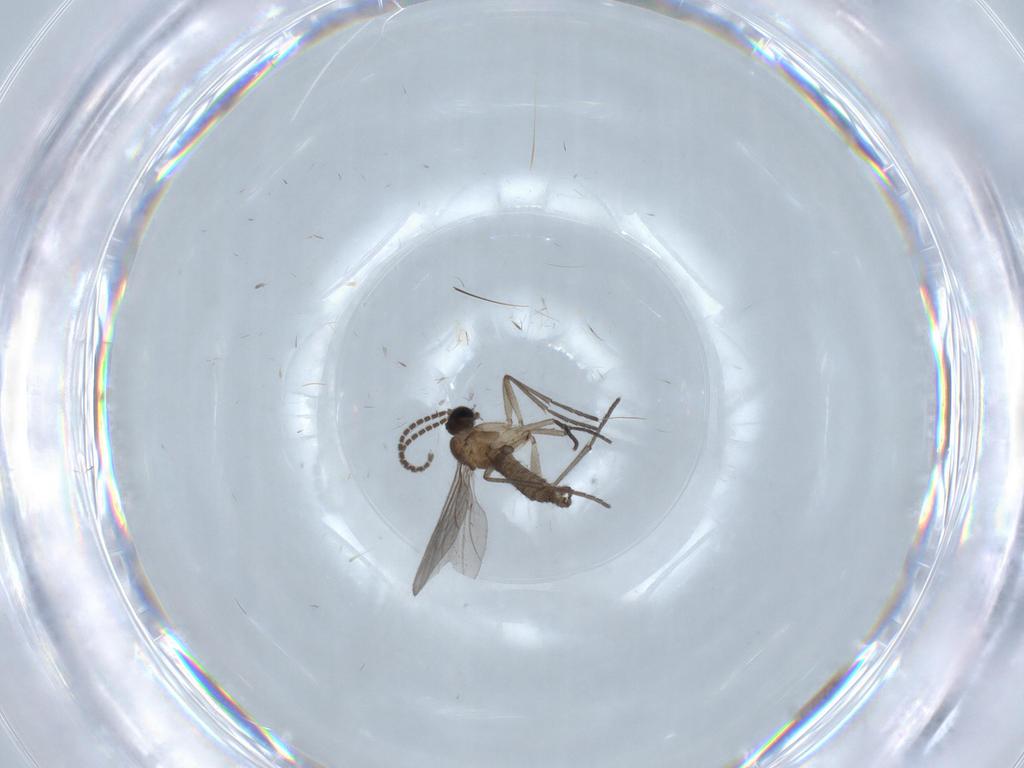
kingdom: Animalia
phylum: Arthropoda
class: Insecta
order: Diptera
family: Sciaridae
